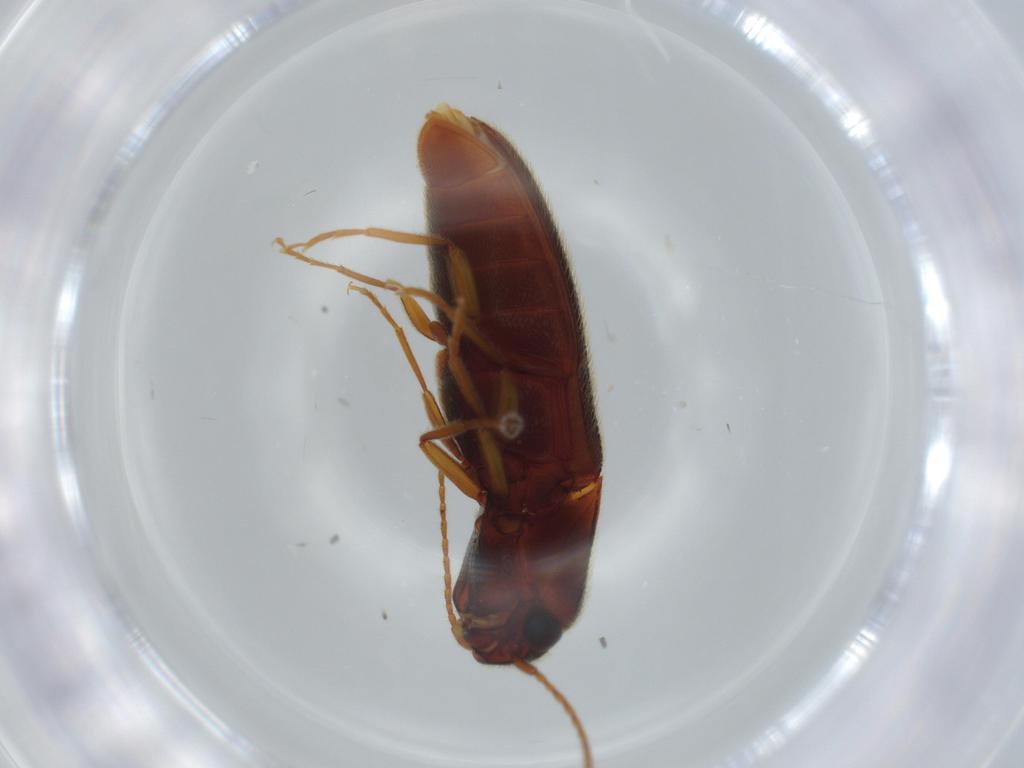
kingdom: Animalia
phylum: Arthropoda
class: Insecta
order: Coleoptera
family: Elateridae
